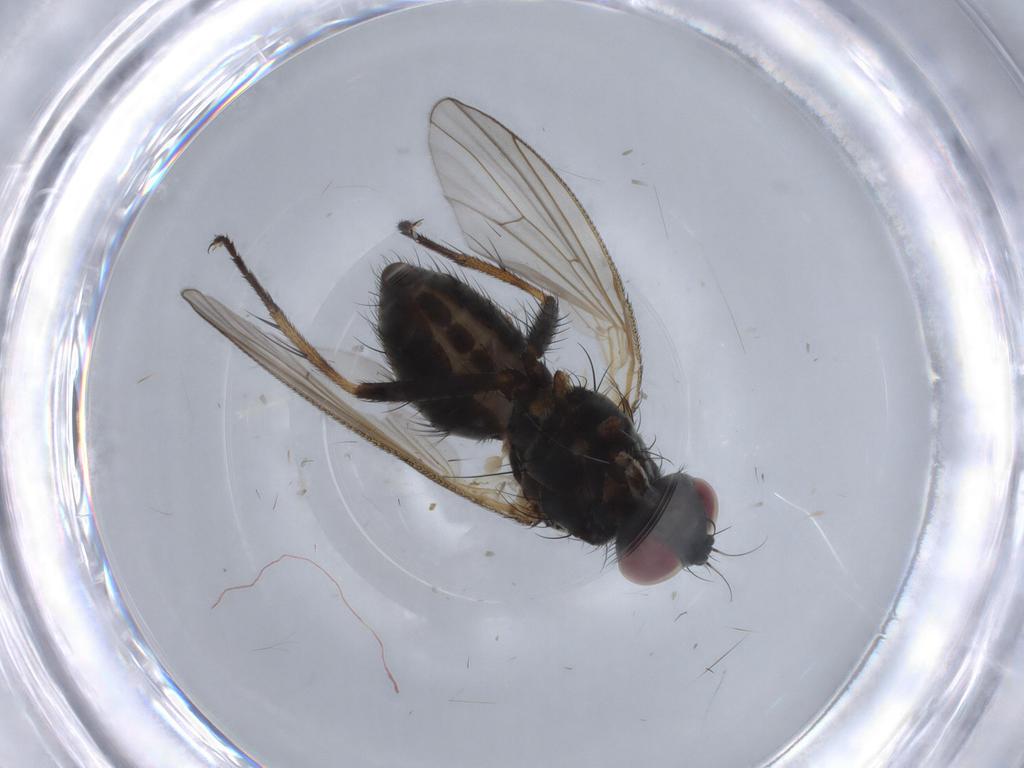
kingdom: Animalia
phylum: Arthropoda
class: Insecta
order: Diptera
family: Muscidae
